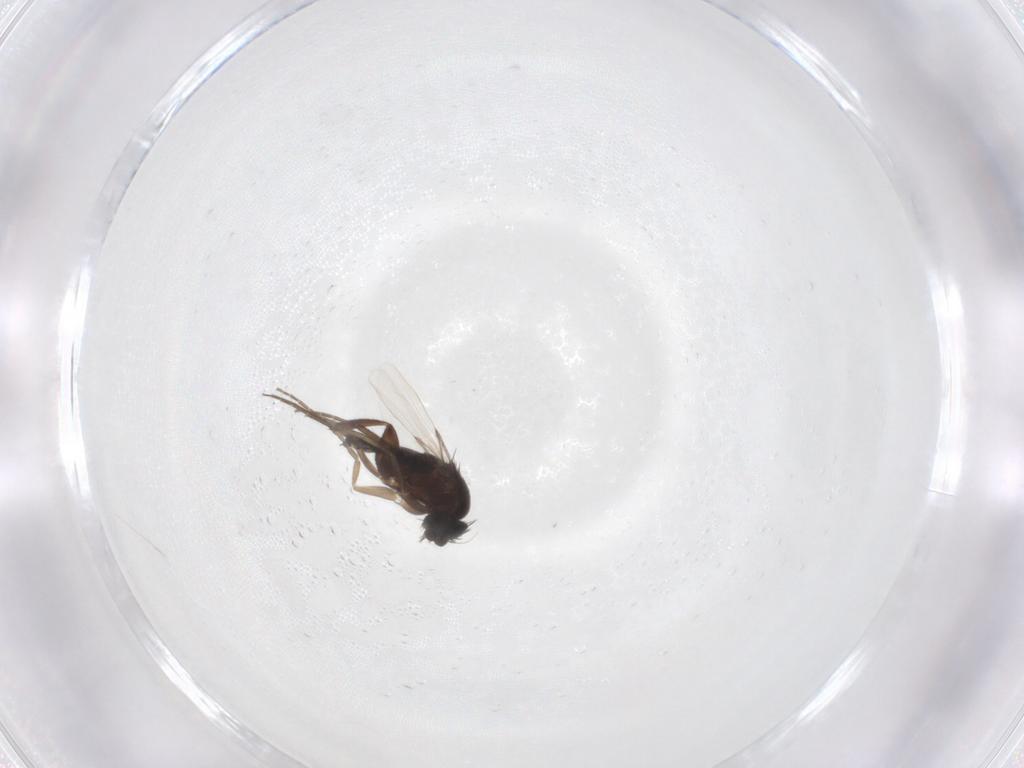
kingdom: Animalia
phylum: Arthropoda
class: Insecta
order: Diptera
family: Phoridae
